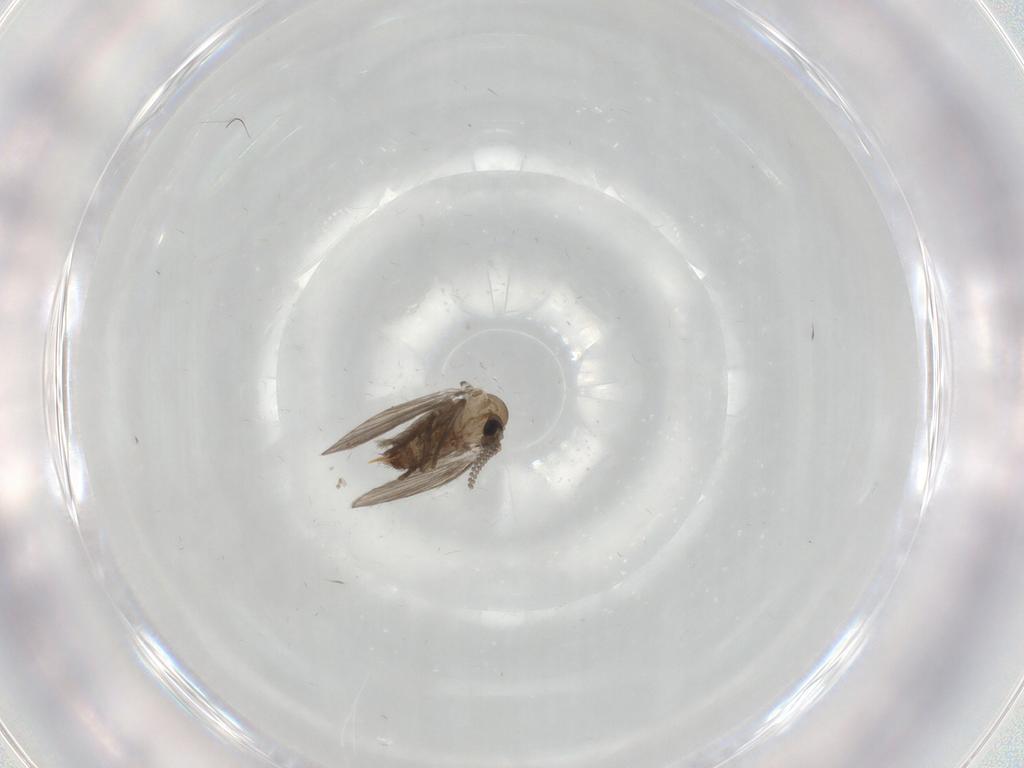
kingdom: Animalia
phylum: Arthropoda
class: Insecta
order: Diptera
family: Psychodidae
